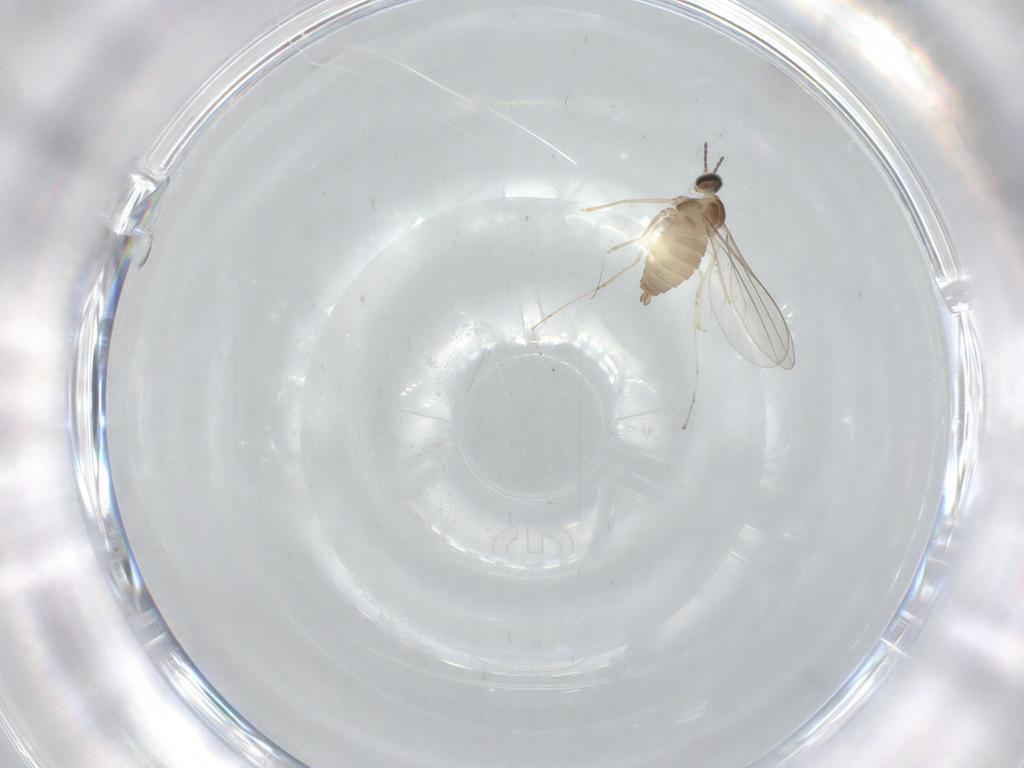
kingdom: Animalia
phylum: Arthropoda
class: Insecta
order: Diptera
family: Cecidomyiidae
